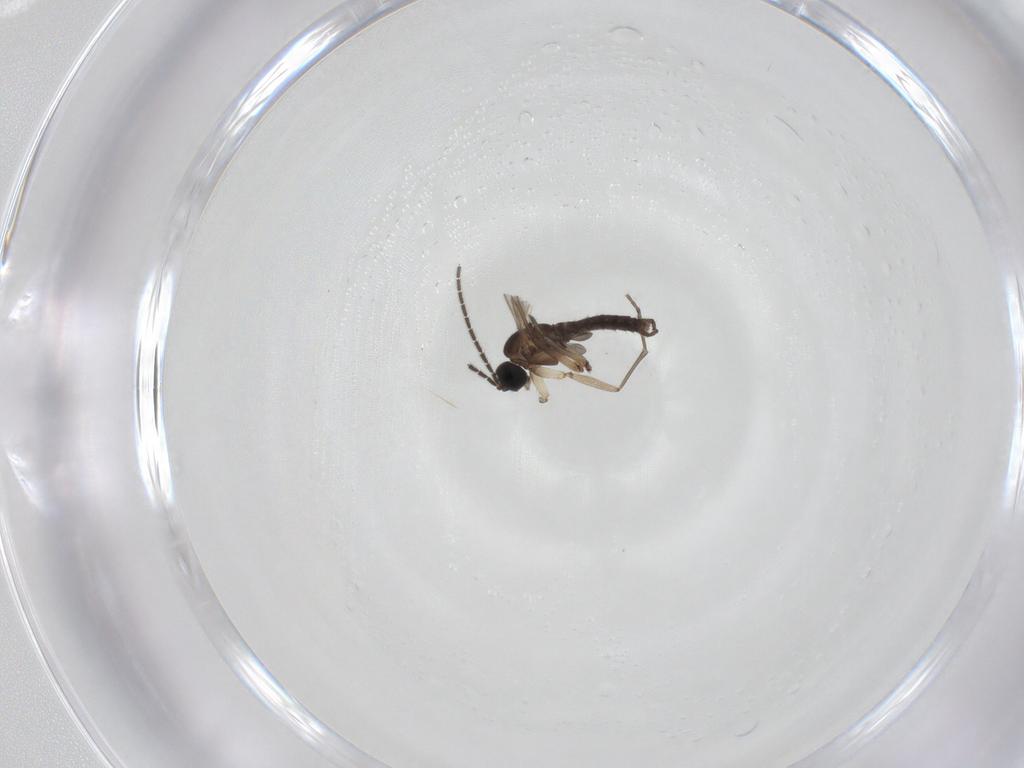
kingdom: Animalia
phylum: Arthropoda
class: Insecta
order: Diptera
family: Sciaridae
